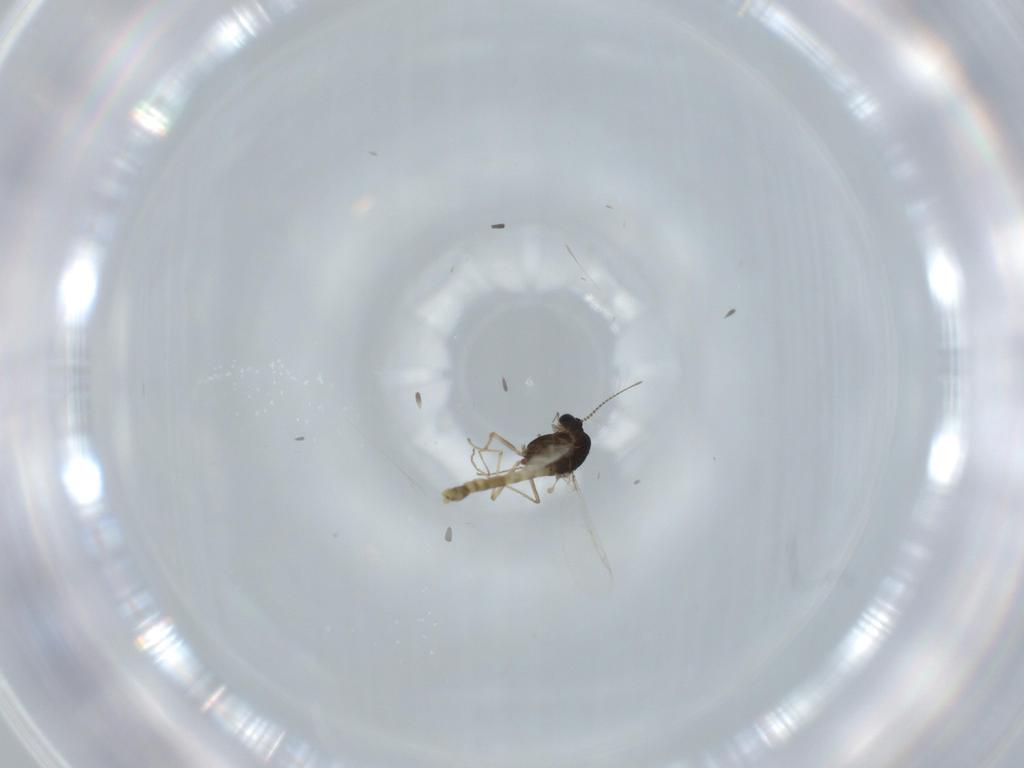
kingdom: Animalia
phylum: Arthropoda
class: Insecta
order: Diptera
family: Chironomidae
